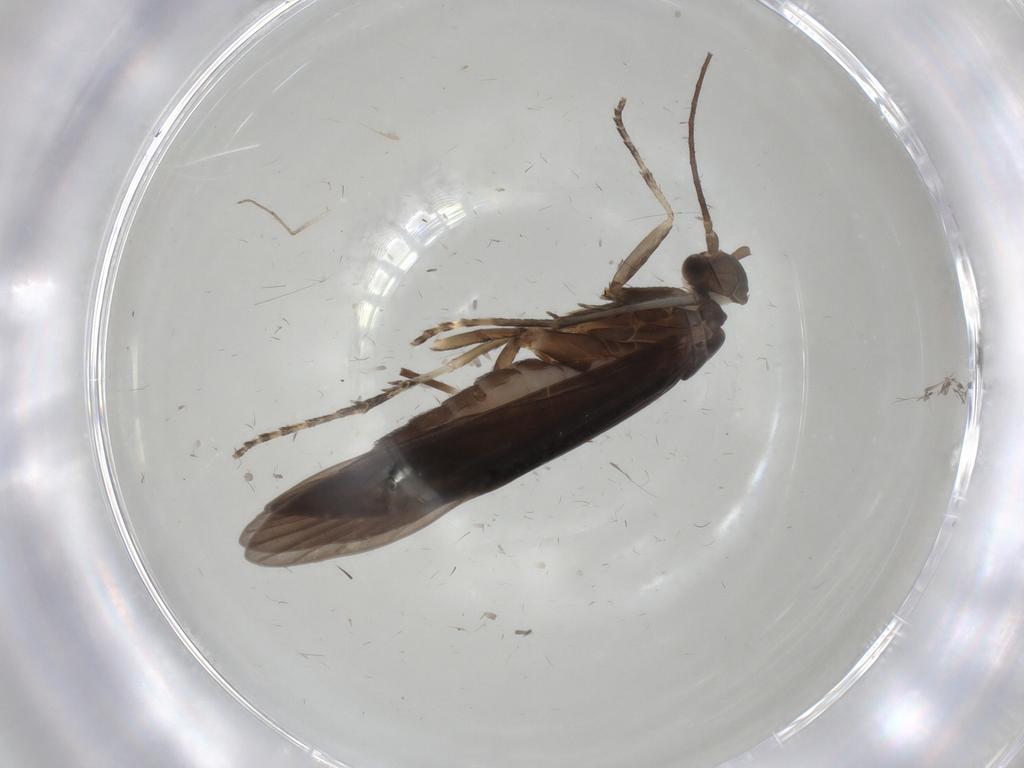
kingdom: Animalia
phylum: Arthropoda
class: Insecta
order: Trichoptera
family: Xiphocentronidae
